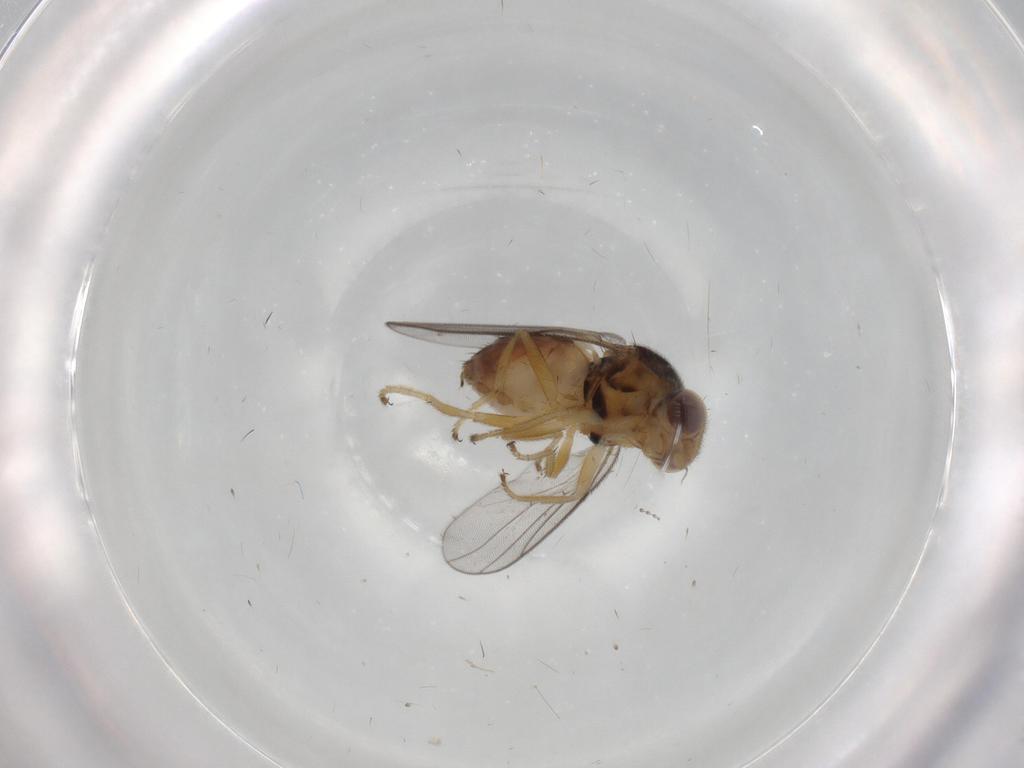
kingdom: Animalia
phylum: Arthropoda
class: Insecta
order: Diptera
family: Chloropidae
